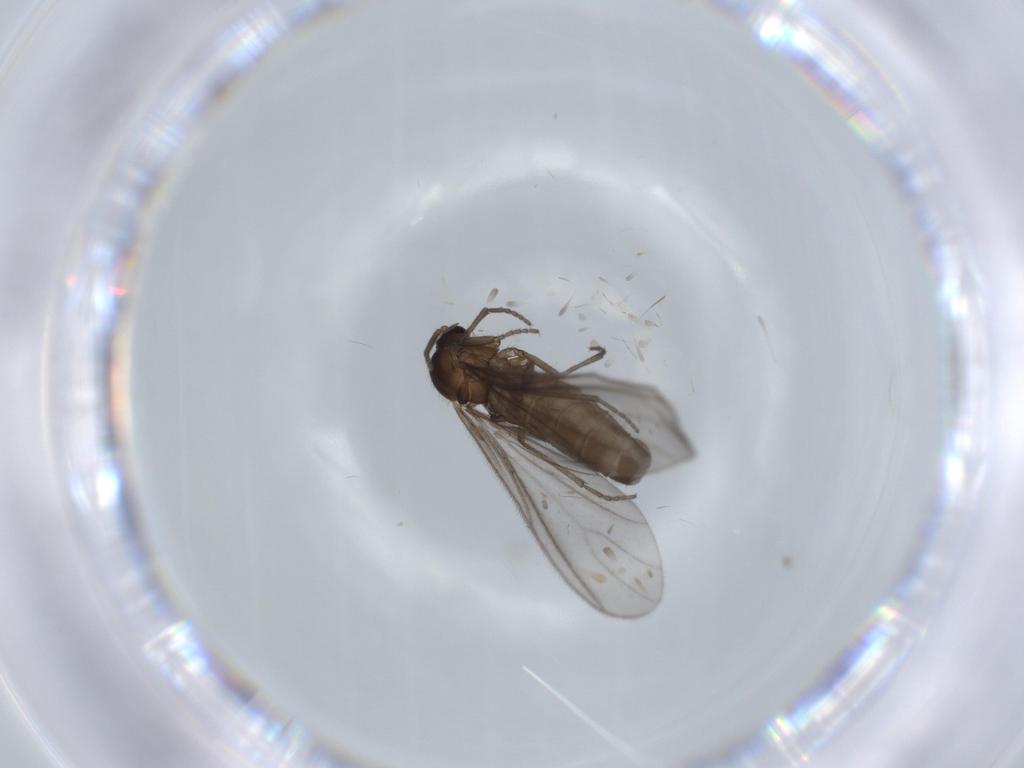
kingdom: Animalia
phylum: Arthropoda
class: Insecta
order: Diptera
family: Sciaridae
